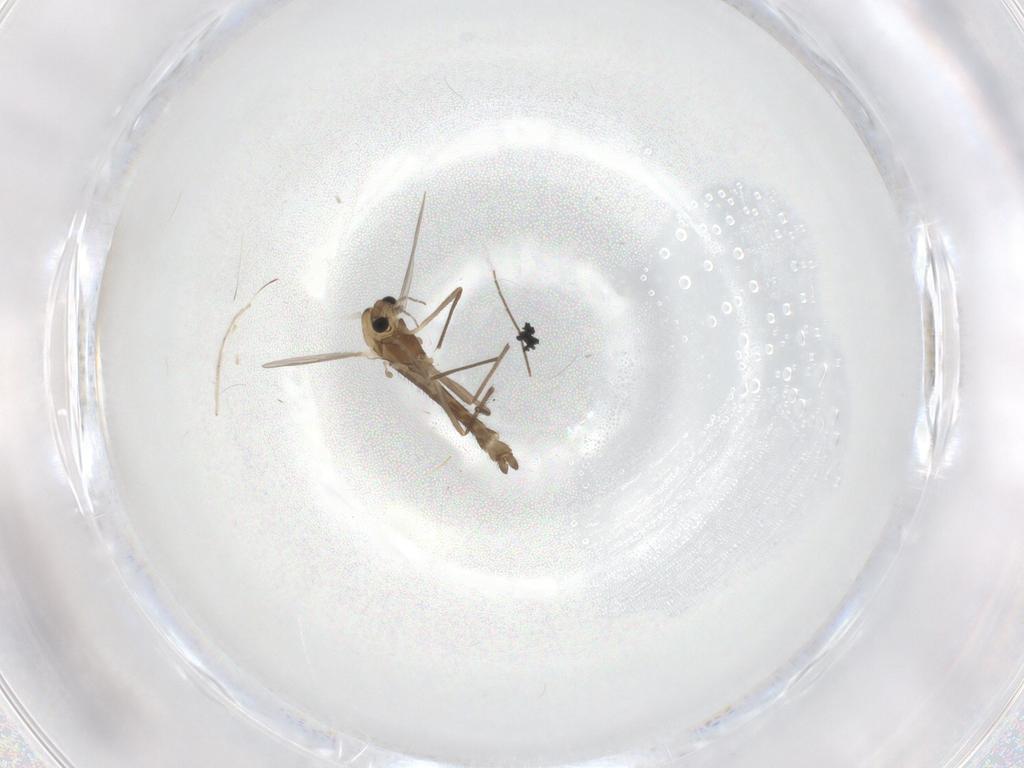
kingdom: Animalia
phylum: Arthropoda
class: Insecta
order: Diptera
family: Chironomidae
